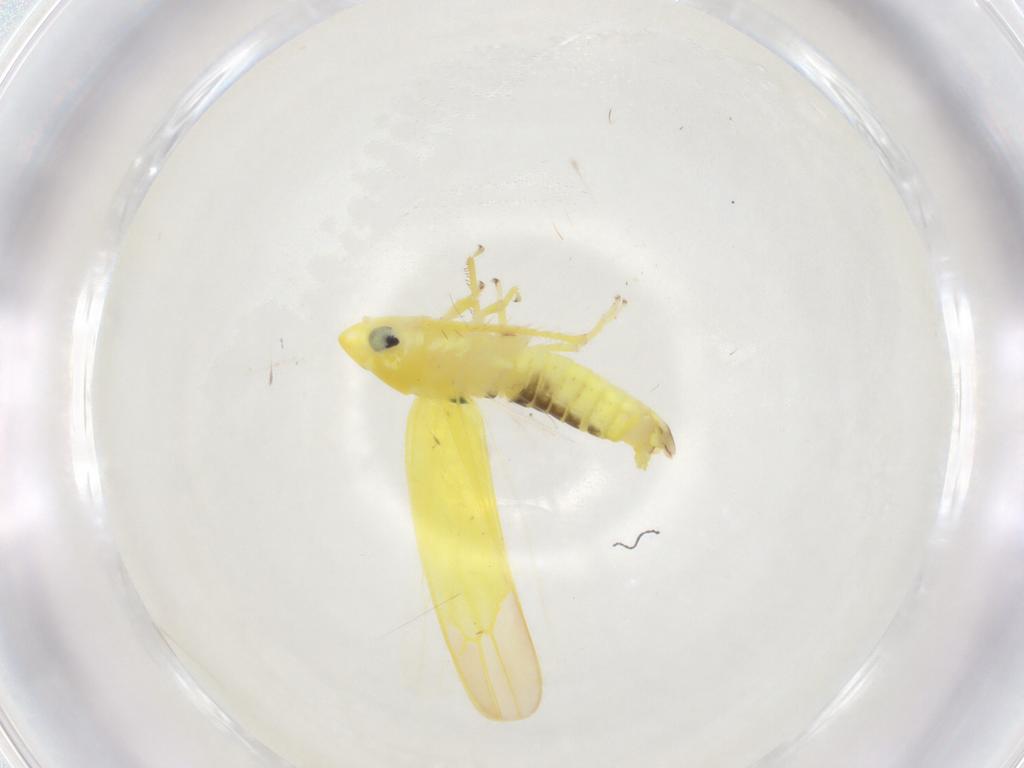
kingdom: Animalia
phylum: Arthropoda
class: Insecta
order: Hemiptera
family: Cicadellidae
